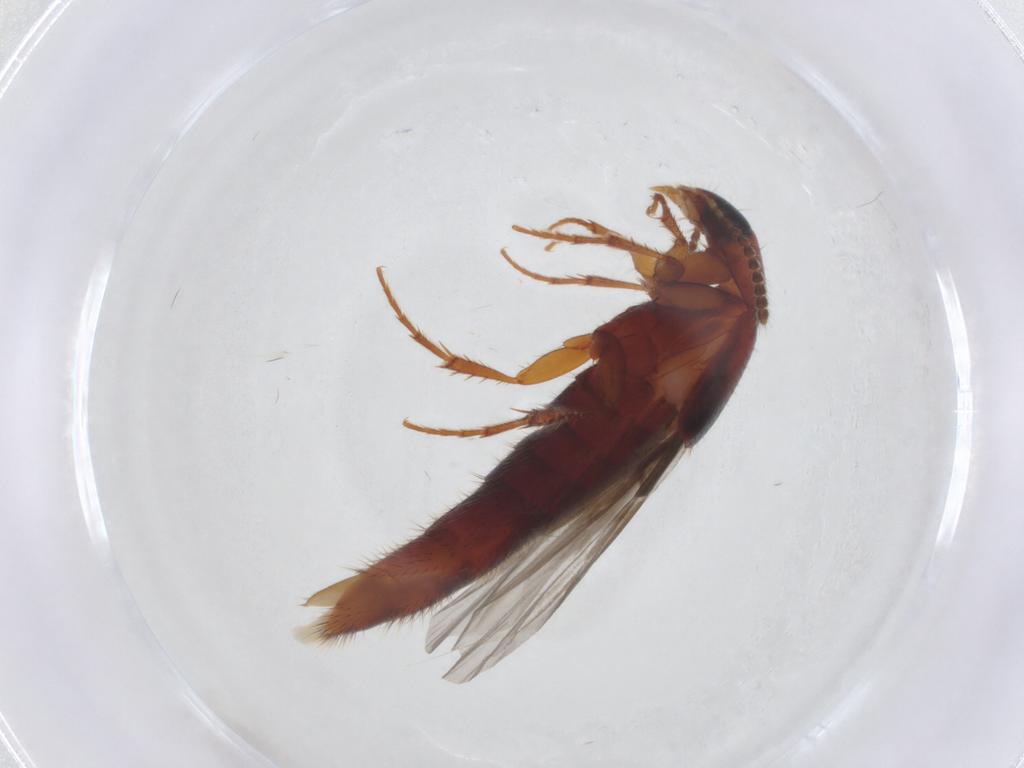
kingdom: Animalia
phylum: Arthropoda
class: Insecta
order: Coleoptera
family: Staphylinidae
